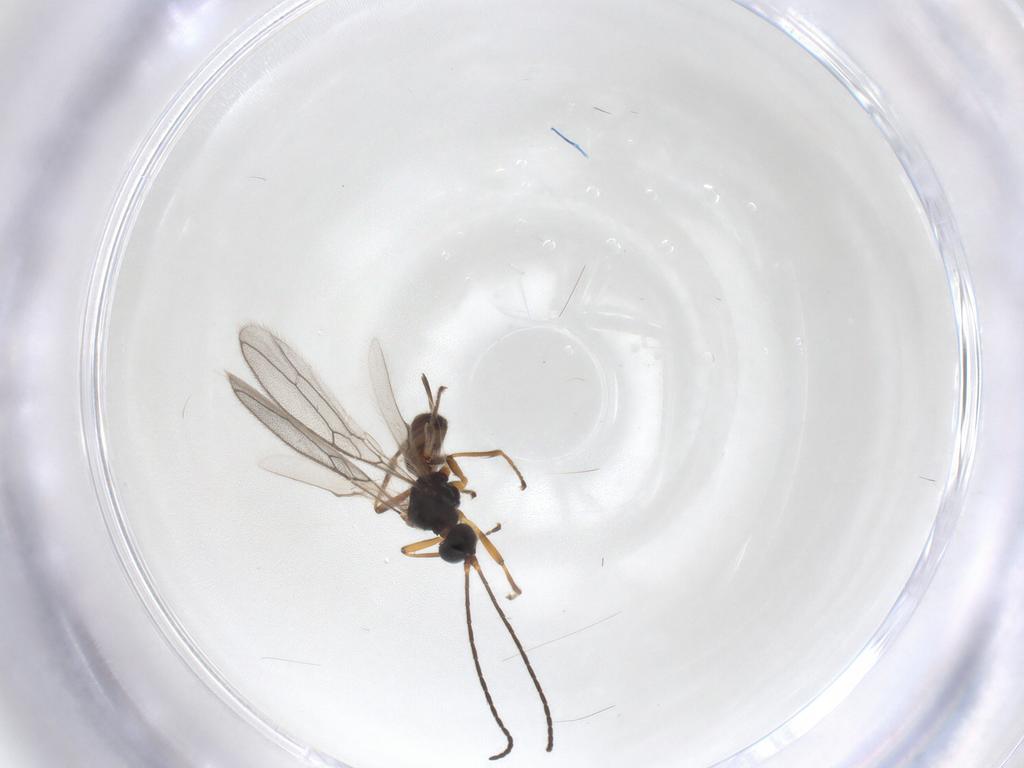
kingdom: Animalia
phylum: Arthropoda
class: Insecta
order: Hymenoptera
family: Braconidae
